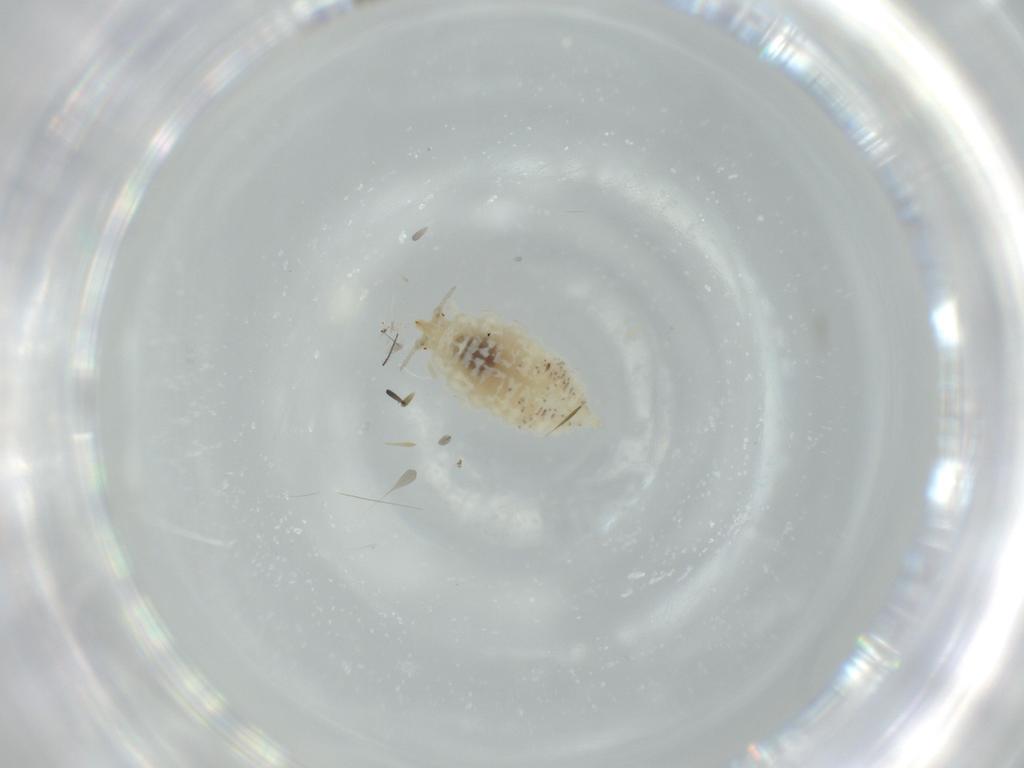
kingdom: Animalia
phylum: Arthropoda
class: Insecta
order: Neuroptera
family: Coniopterygidae
